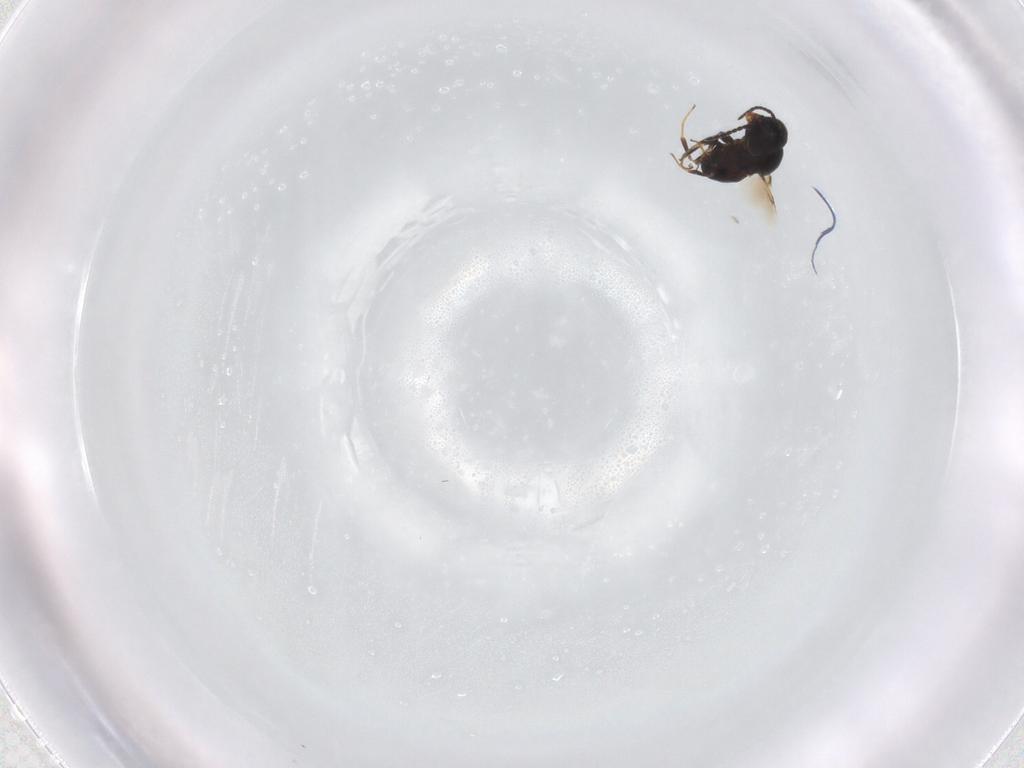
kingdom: Animalia
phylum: Arthropoda
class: Insecta
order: Hymenoptera
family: Scelionidae
